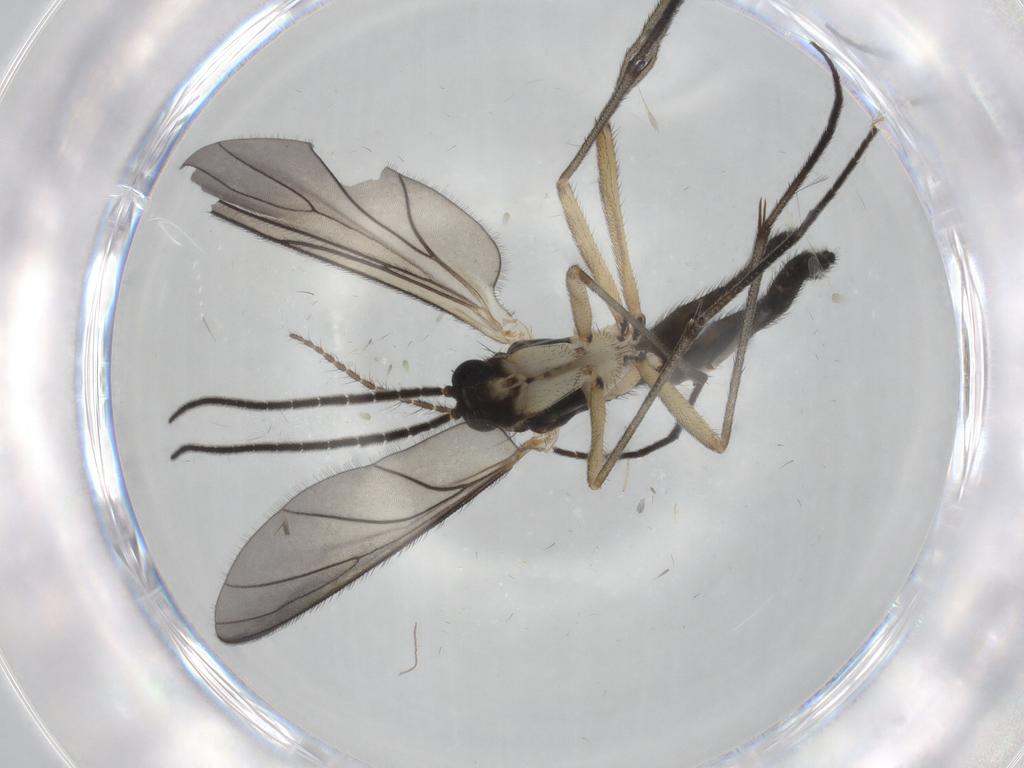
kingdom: Animalia
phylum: Arthropoda
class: Insecta
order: Diptera
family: Sciaridae
